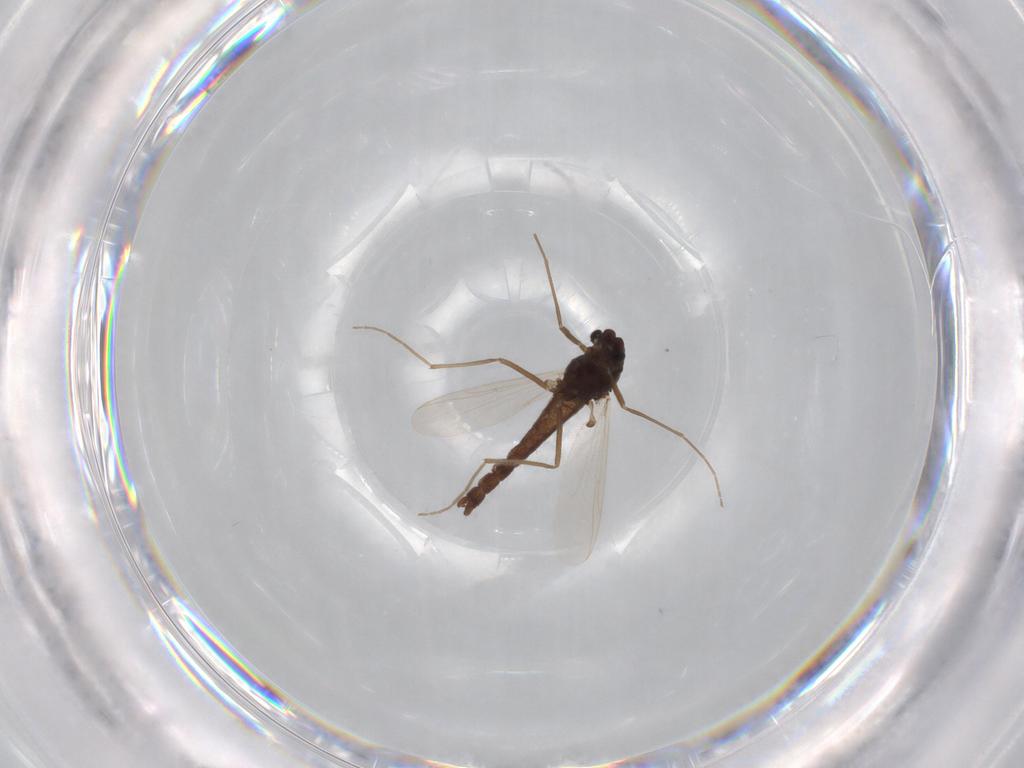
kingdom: Animalia
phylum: Arthropoda
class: Insecta
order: Diptera
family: Chironomidae
